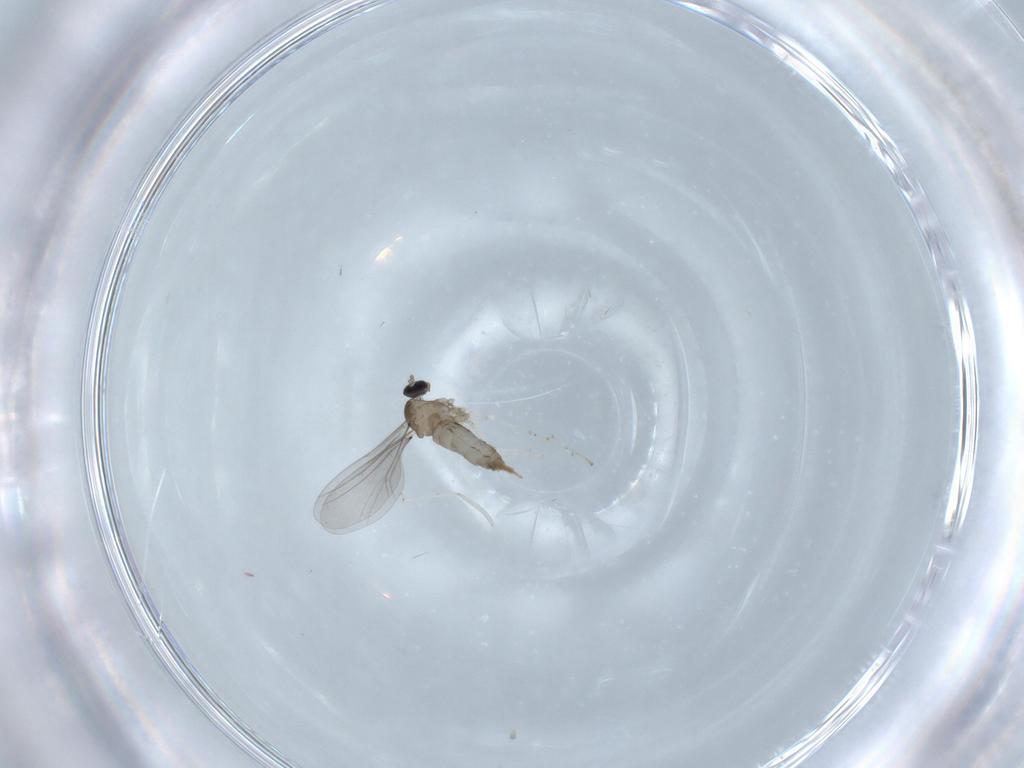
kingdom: Animalia
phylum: Arthropoda
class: Insecta
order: Diptera
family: Cecidomyiidae
